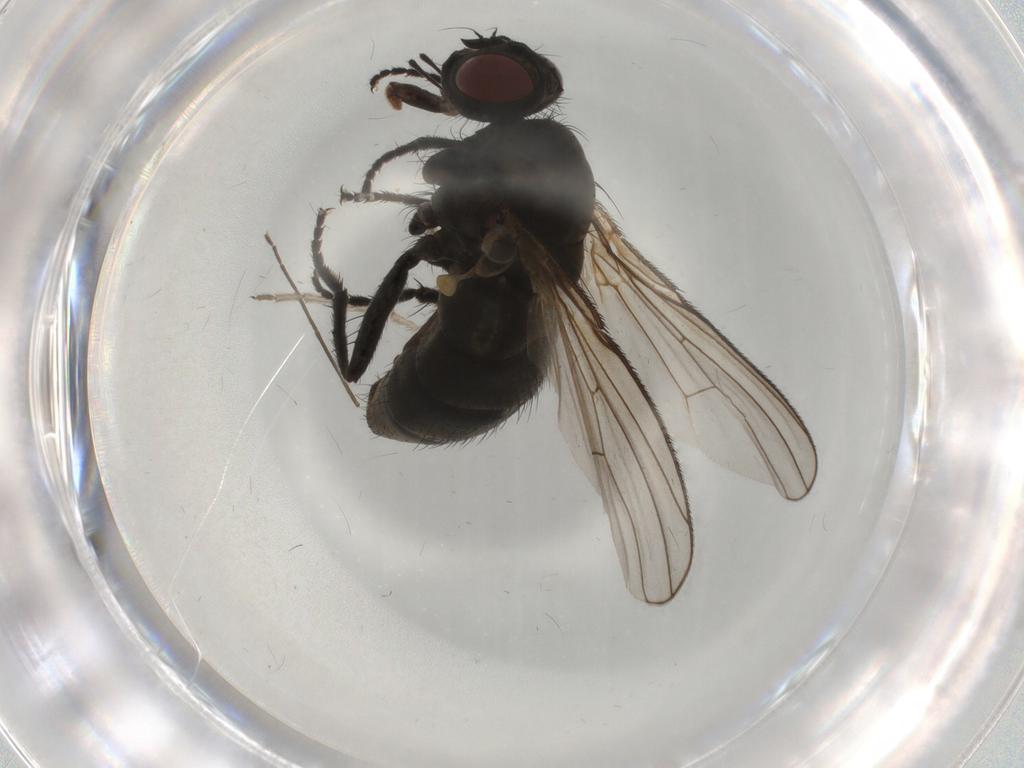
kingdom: Animalia
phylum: Arthropoda
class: Insecta
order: Diptera
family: Muscidae
